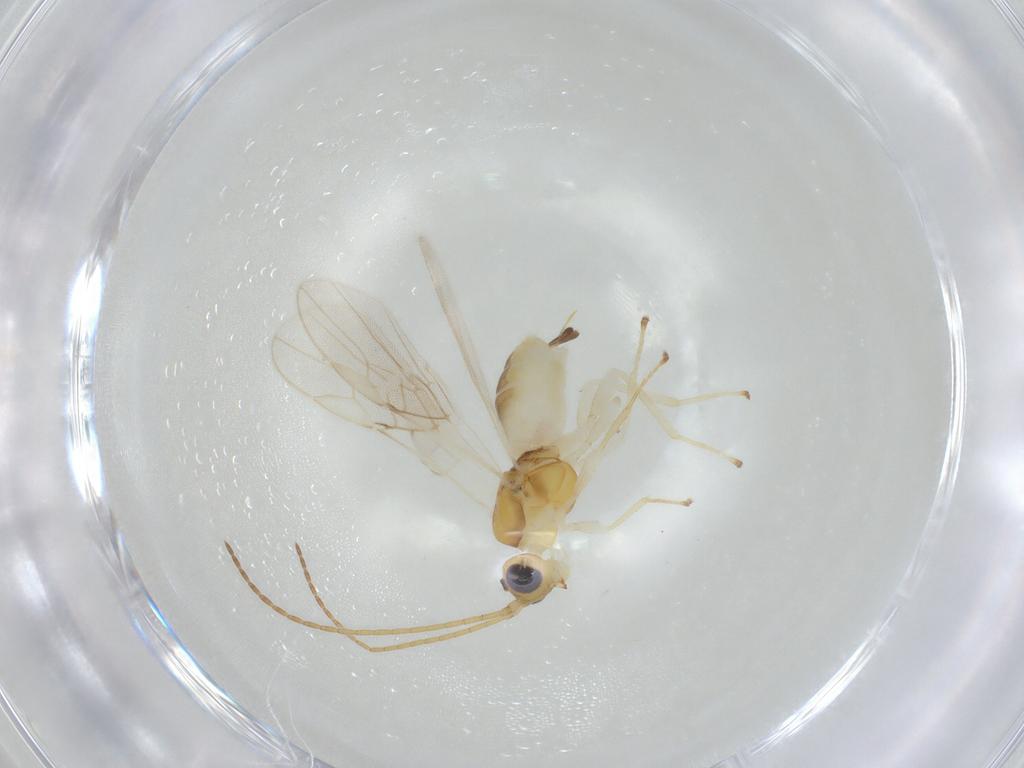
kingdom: Animalia
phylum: Arthropoda
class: Insecta
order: Hymenoptera
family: Braconidae
